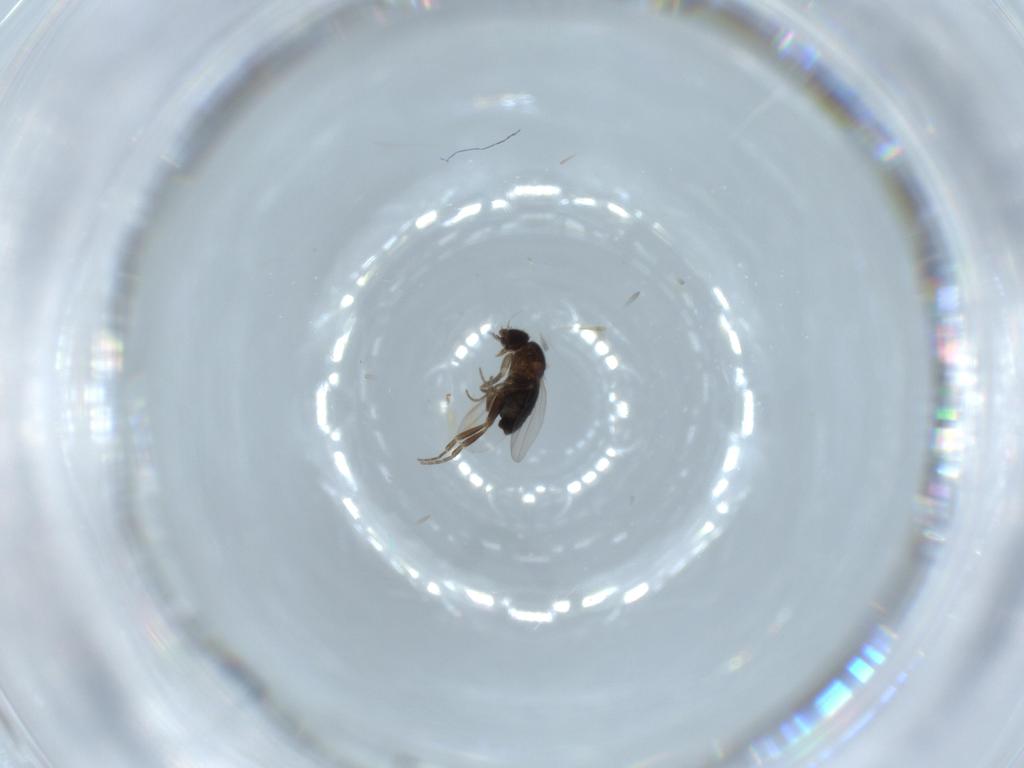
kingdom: Animalia
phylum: Arthropoda
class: Insecta
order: Diptera
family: Phoridae
